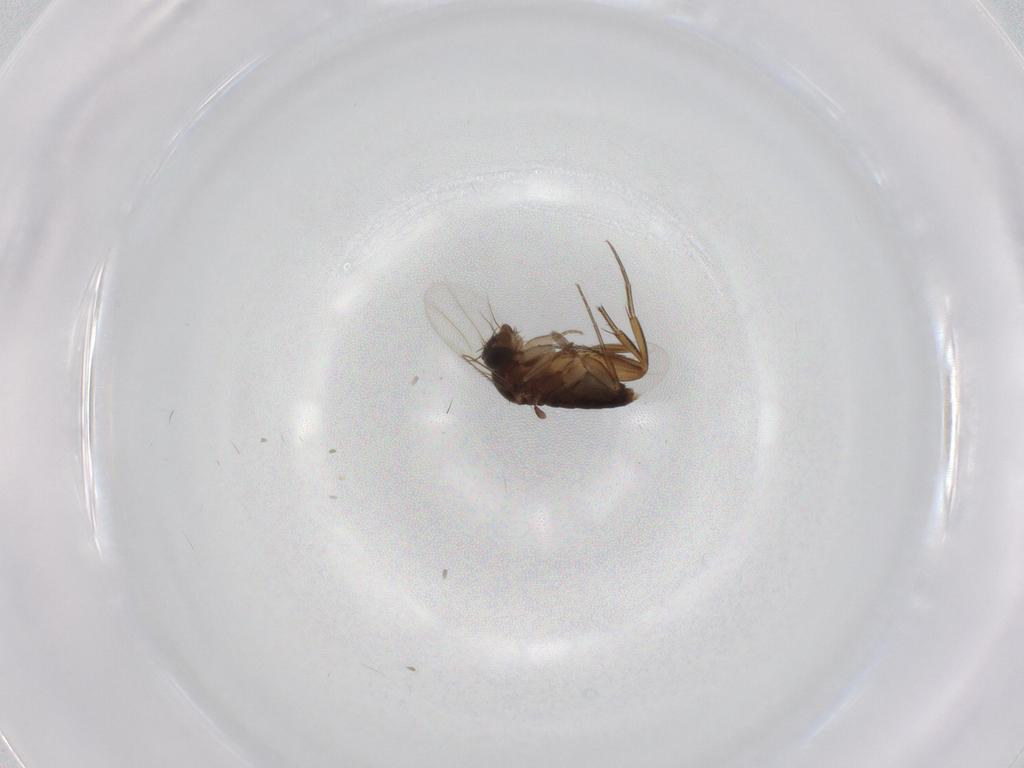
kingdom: Animalia
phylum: Arthropoda
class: Insecta
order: Diptera
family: Phoridae
